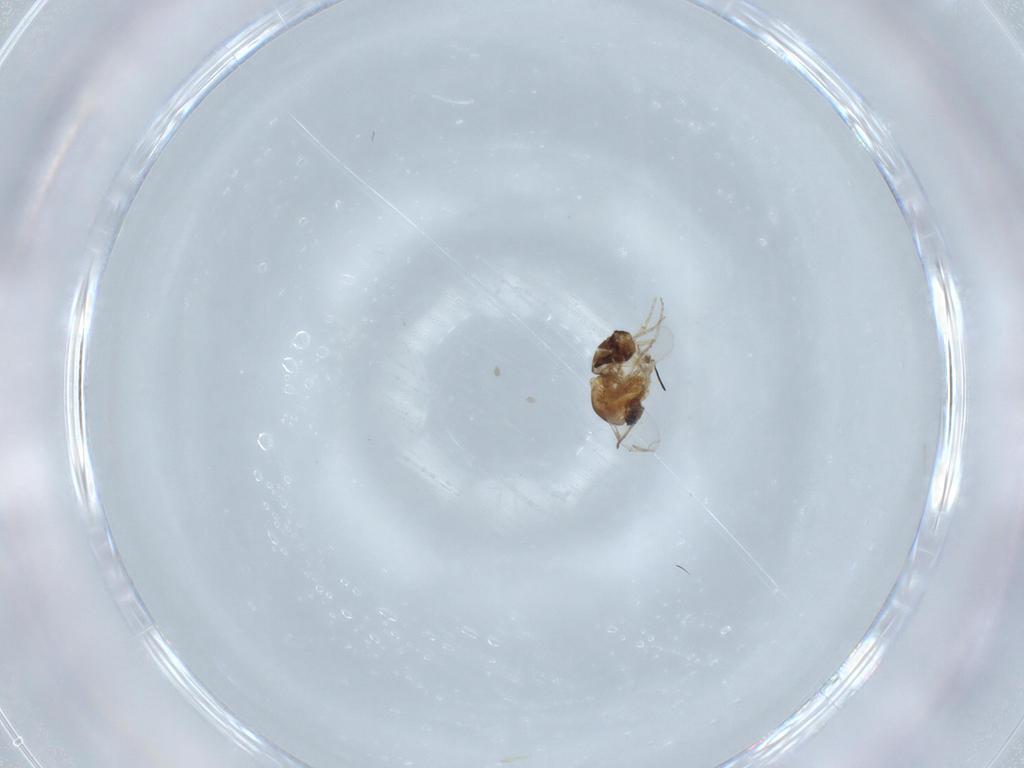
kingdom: Animalia
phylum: Arthropoda
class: Insecta
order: Diptera
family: Ceratopogonidae
